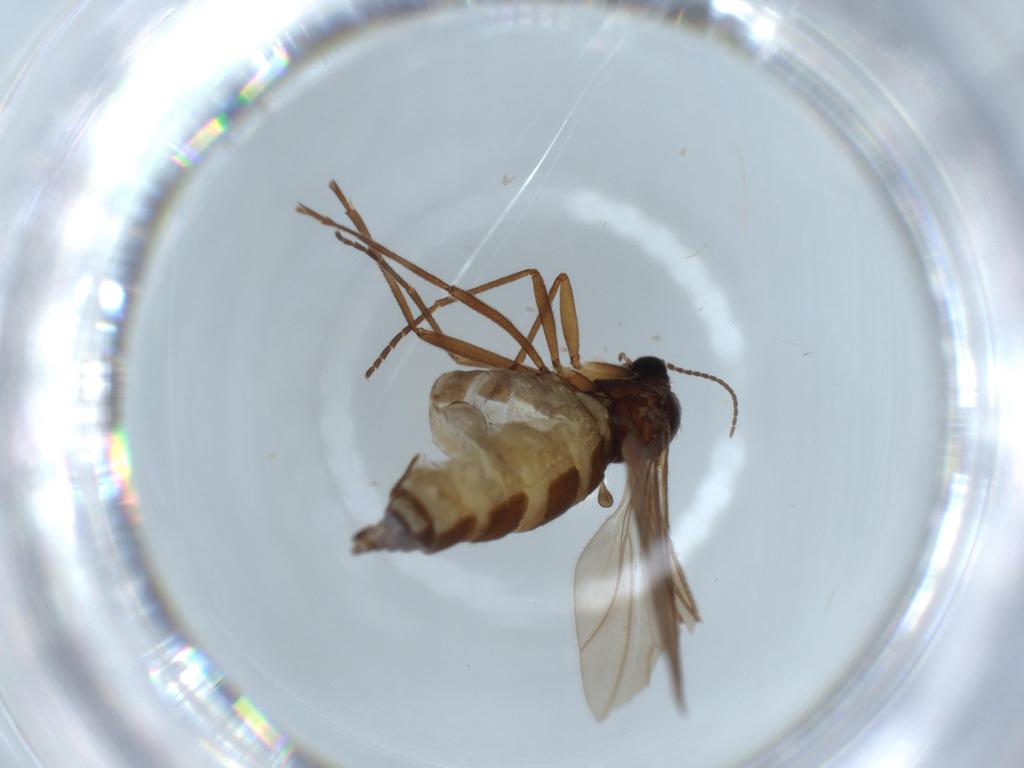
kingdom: Animalia
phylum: Arthropoda
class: Insecta
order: Diptera
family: Sciaridae
